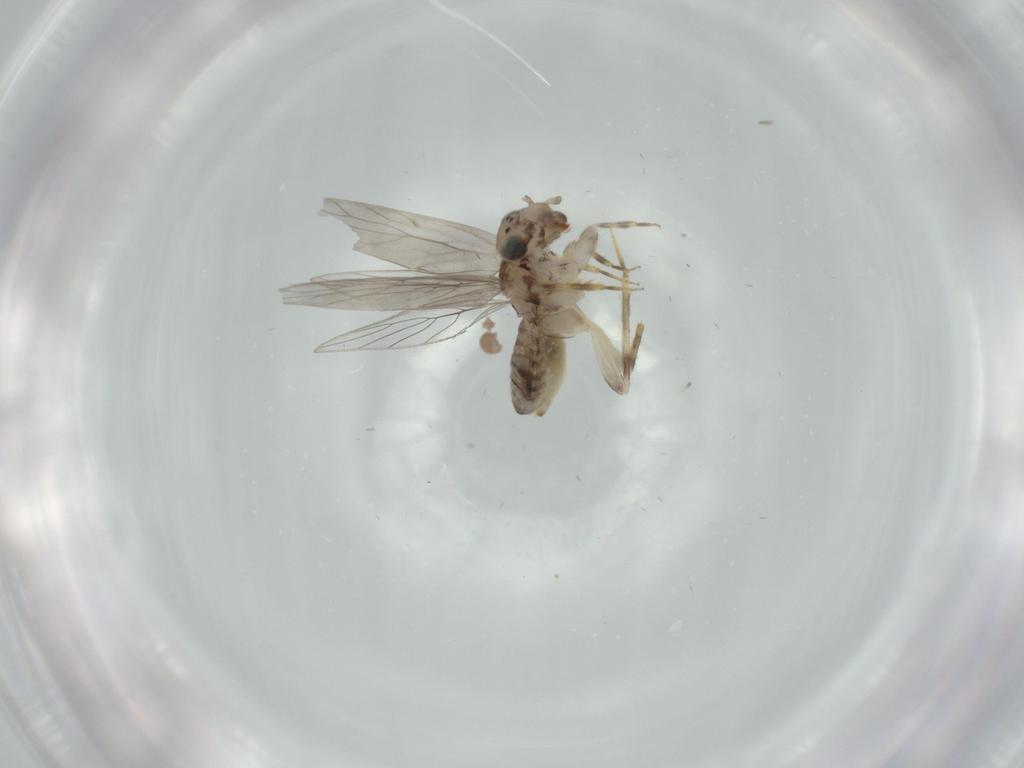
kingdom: Animalia
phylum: Arthropoda
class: Insecta
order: Psocodea
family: Lepidopsocidae
